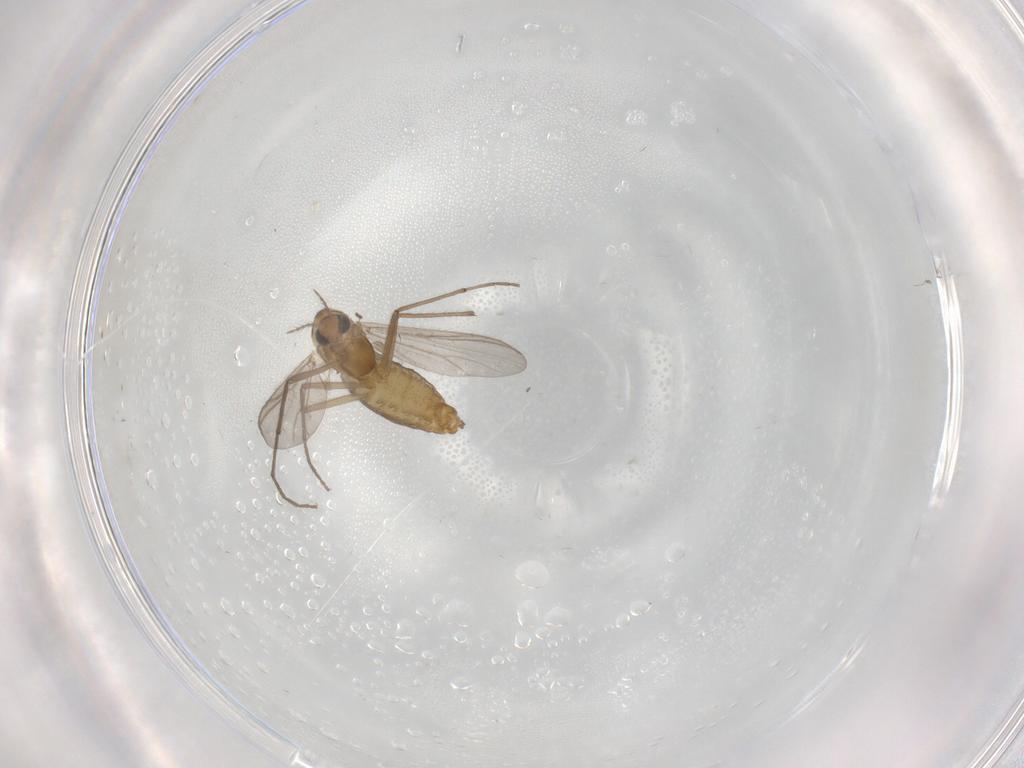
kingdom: Animalia
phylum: Arthropoda
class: Insecta
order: Diptera
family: Chironomidae
